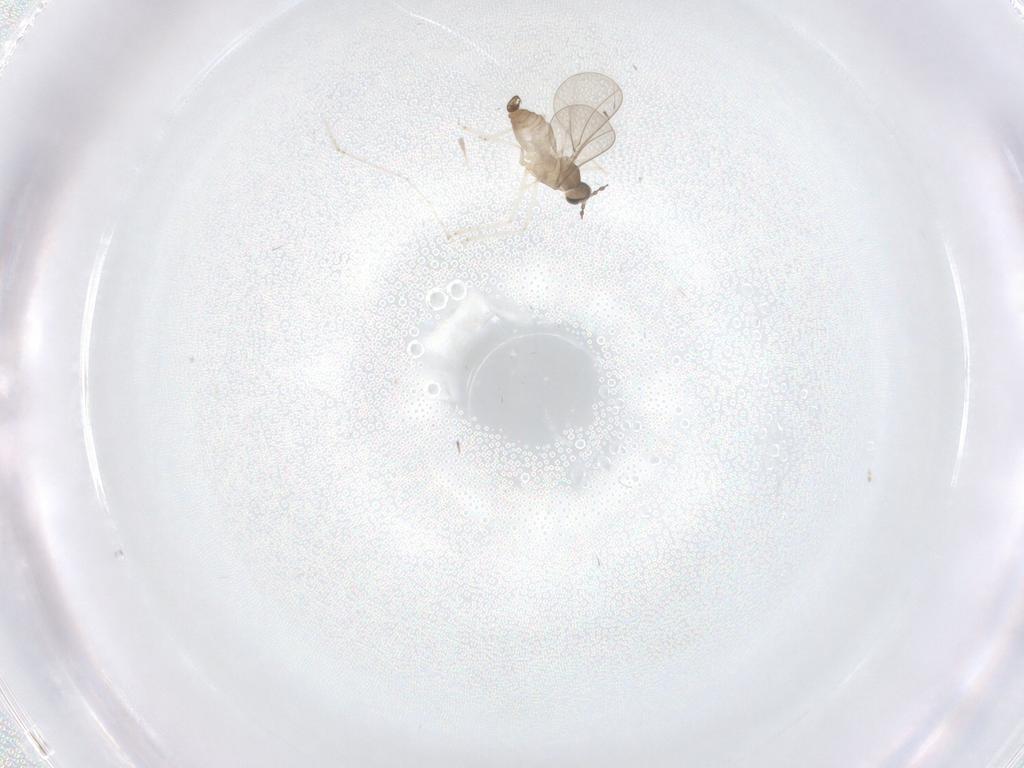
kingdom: Animalia
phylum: Arthropoda
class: Insecta
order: Diptera
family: Cecidomyiidae
